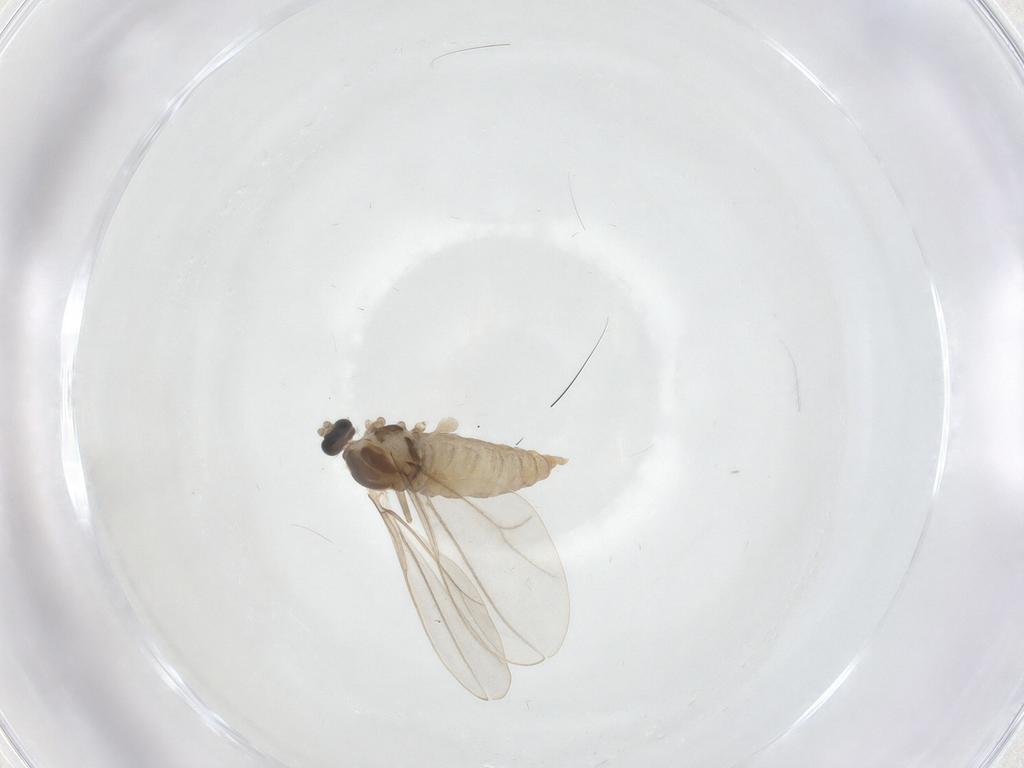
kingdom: Animalia
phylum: Arthropoda
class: Insecta
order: Diptera
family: Cecidomyiidae
